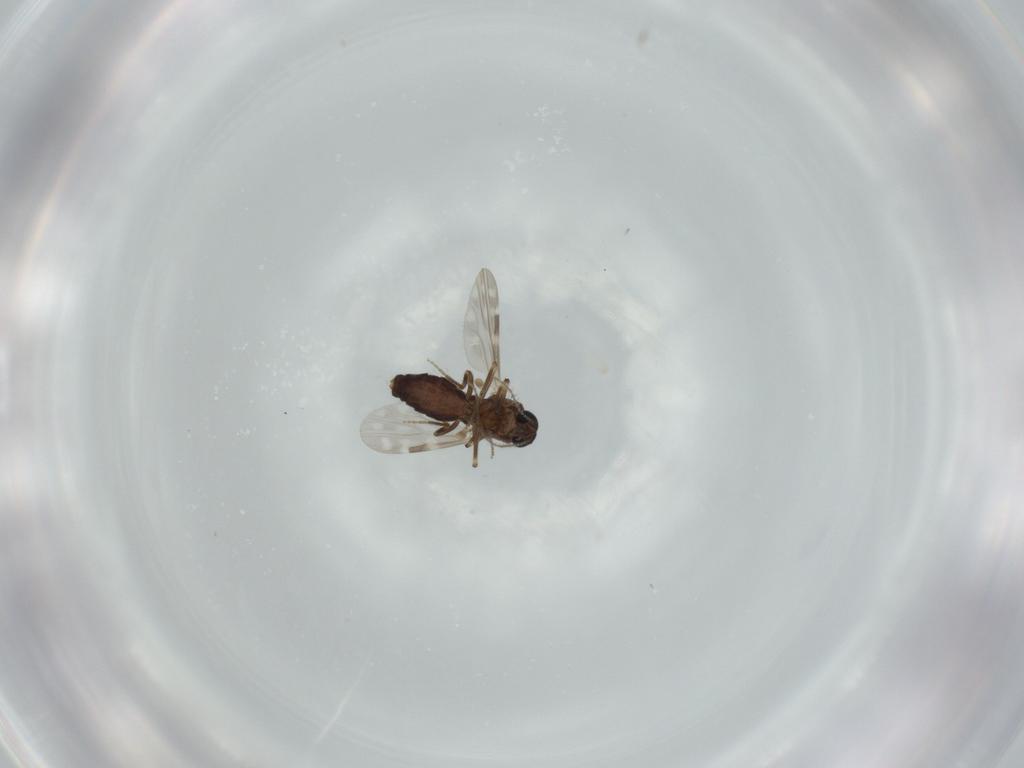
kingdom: Animalia
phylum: Arthropoda
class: Insecta
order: Diptera
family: Ceratopogonidae
